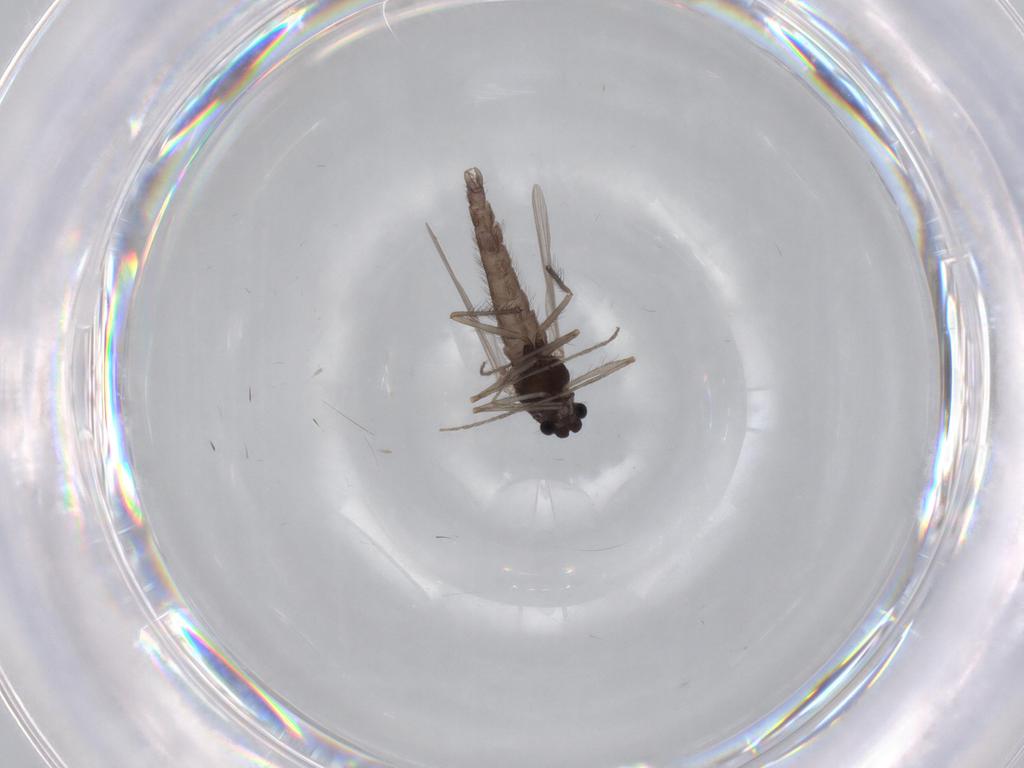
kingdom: Animalia
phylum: Arthropoda
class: Insecta
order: Diptera
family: Chironomidae
